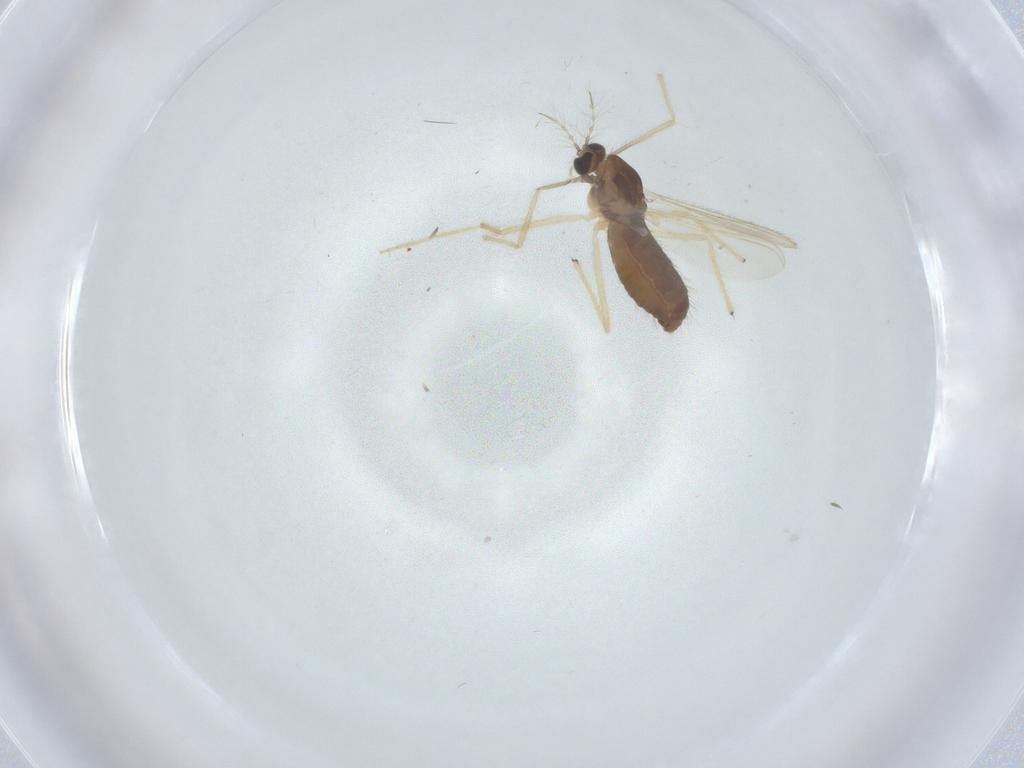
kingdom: Animalia
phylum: Arthropoda
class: Insecta
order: Diptera
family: Chironomidae
